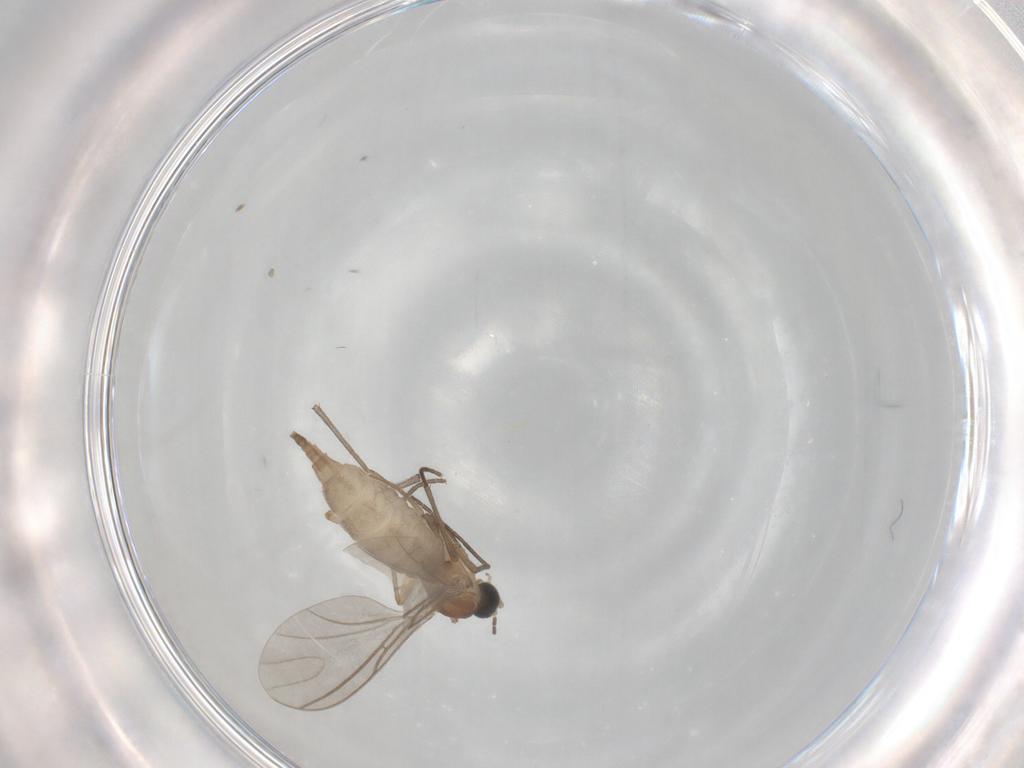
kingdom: Animalia
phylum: Arthropoda
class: Insecta
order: Diptera
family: Sciaridae
